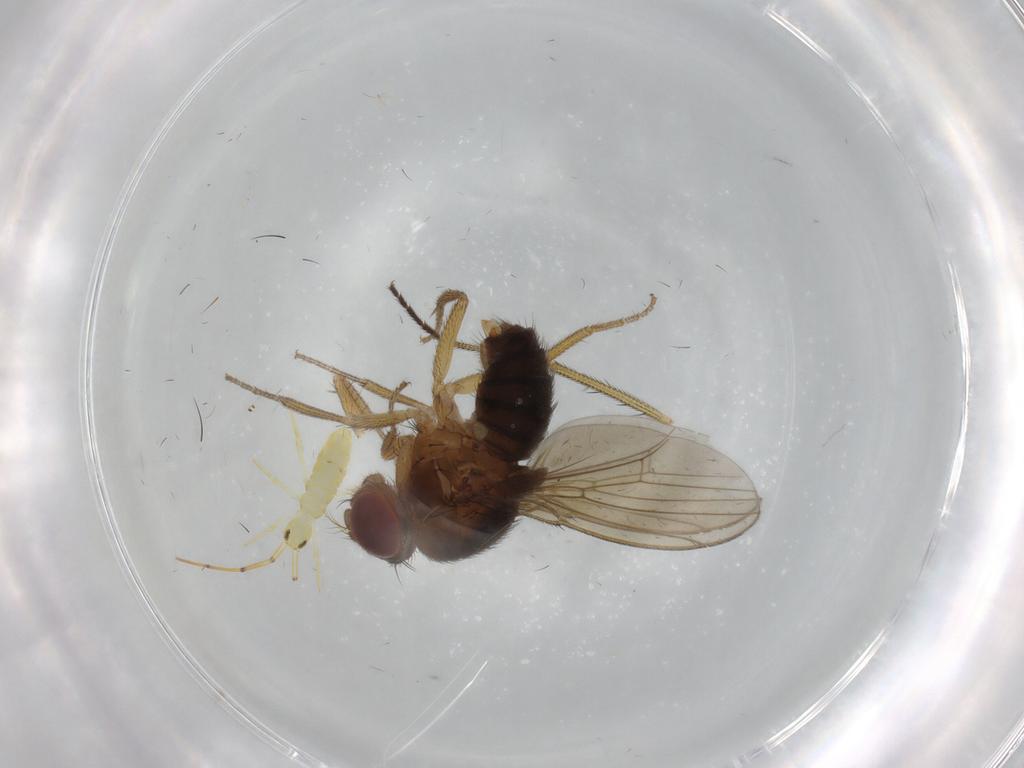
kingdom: Animalia
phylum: Arthropoda
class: Insecta
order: Diptera
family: Drosophilidae
